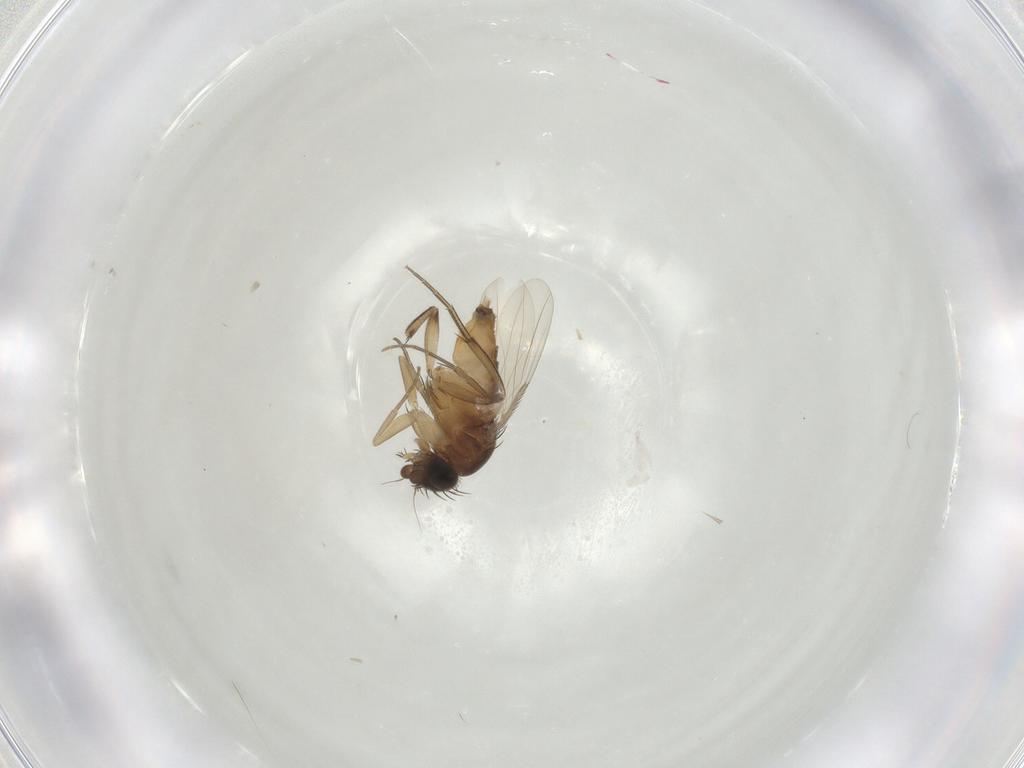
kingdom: Animalia
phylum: Arthropoda
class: Insecta
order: Diptera
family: Phoridae
